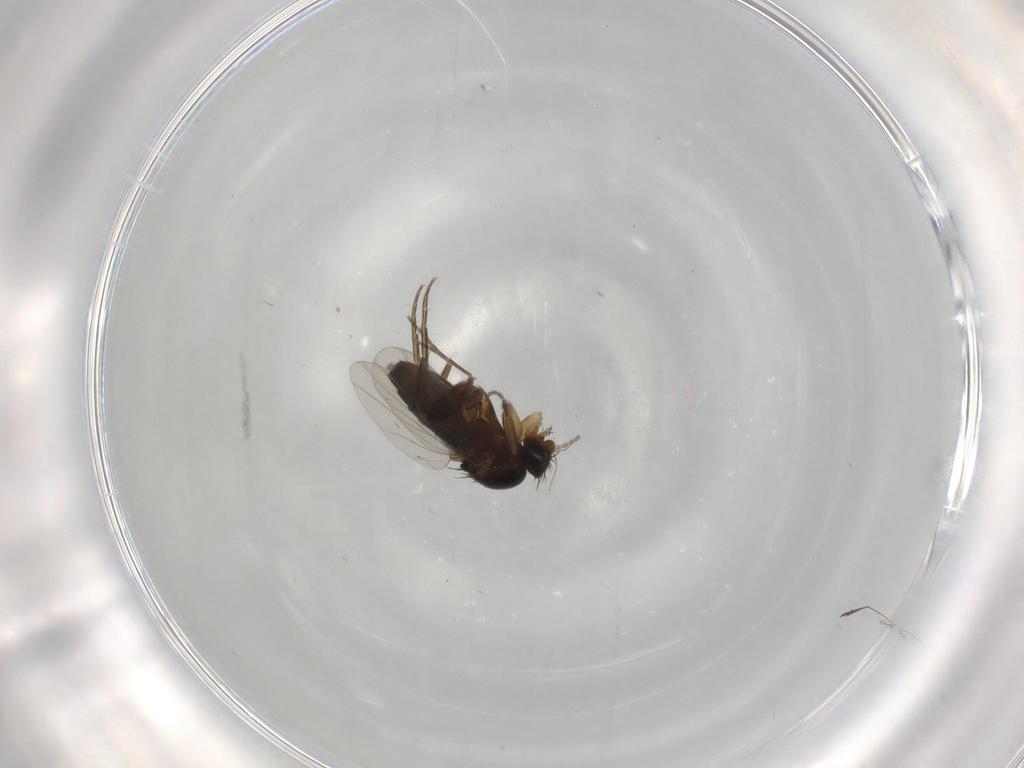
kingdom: Animalia
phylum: Arthropoda
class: Insecta
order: Diptera
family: Phoridae
